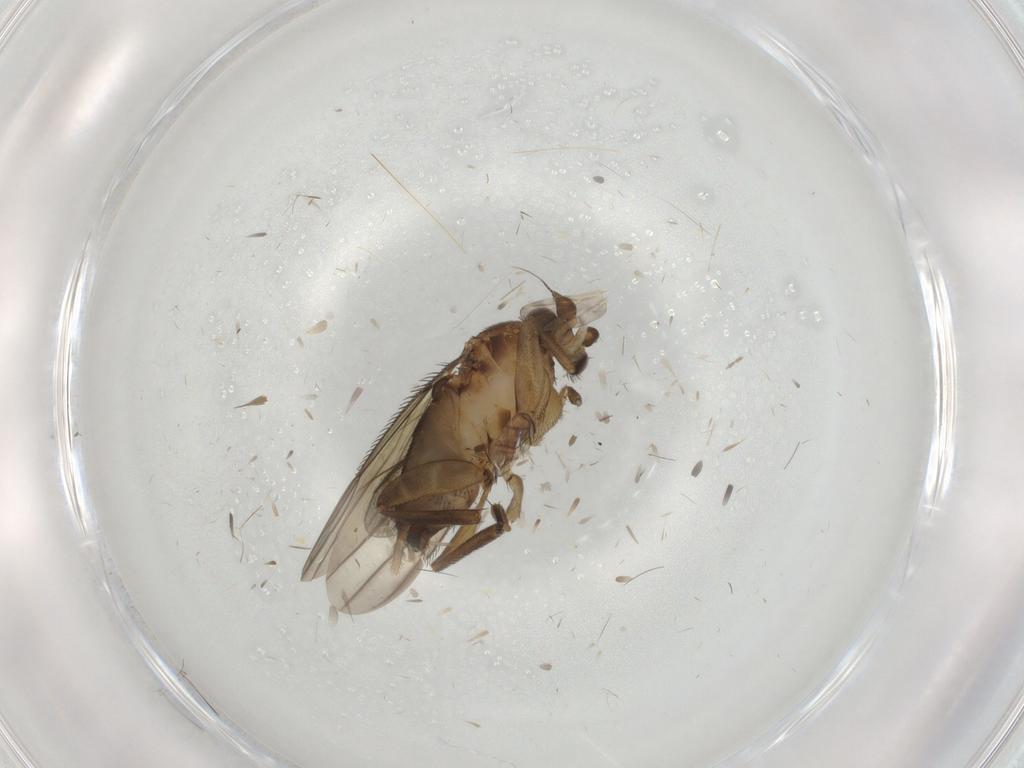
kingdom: Animalia
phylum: Arthropoda
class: Insecta
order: Diptera
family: Phoridae
